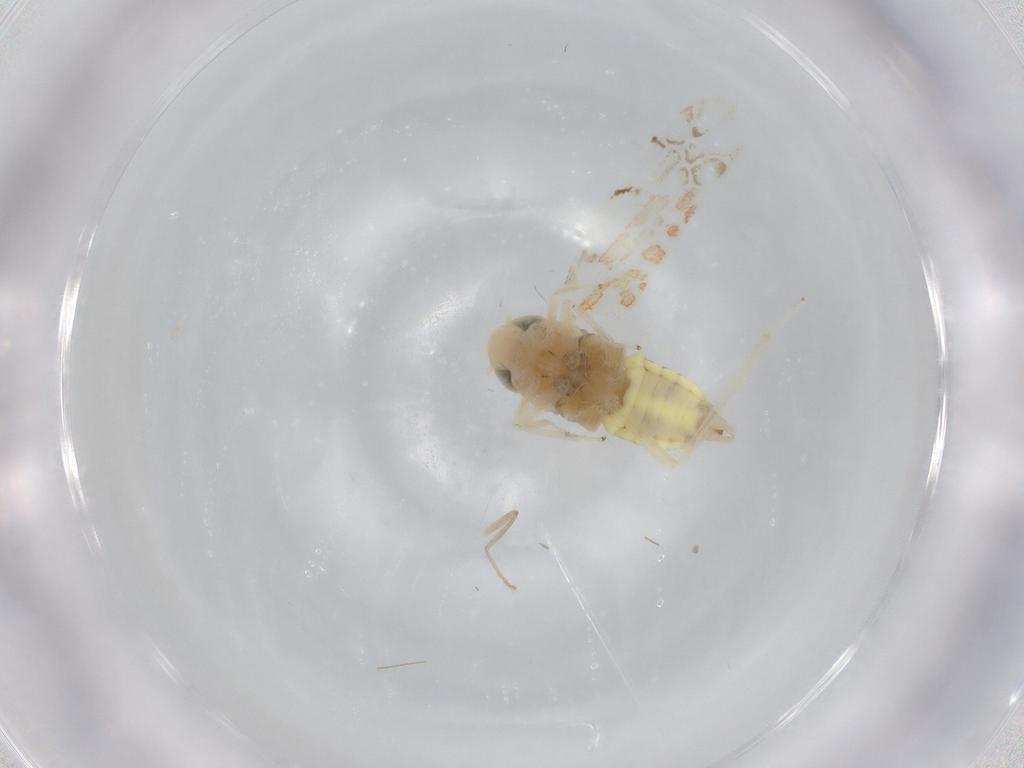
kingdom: Animalia
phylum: Arthropoda
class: Insecta
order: Hemiptera
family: Cicadellidae
